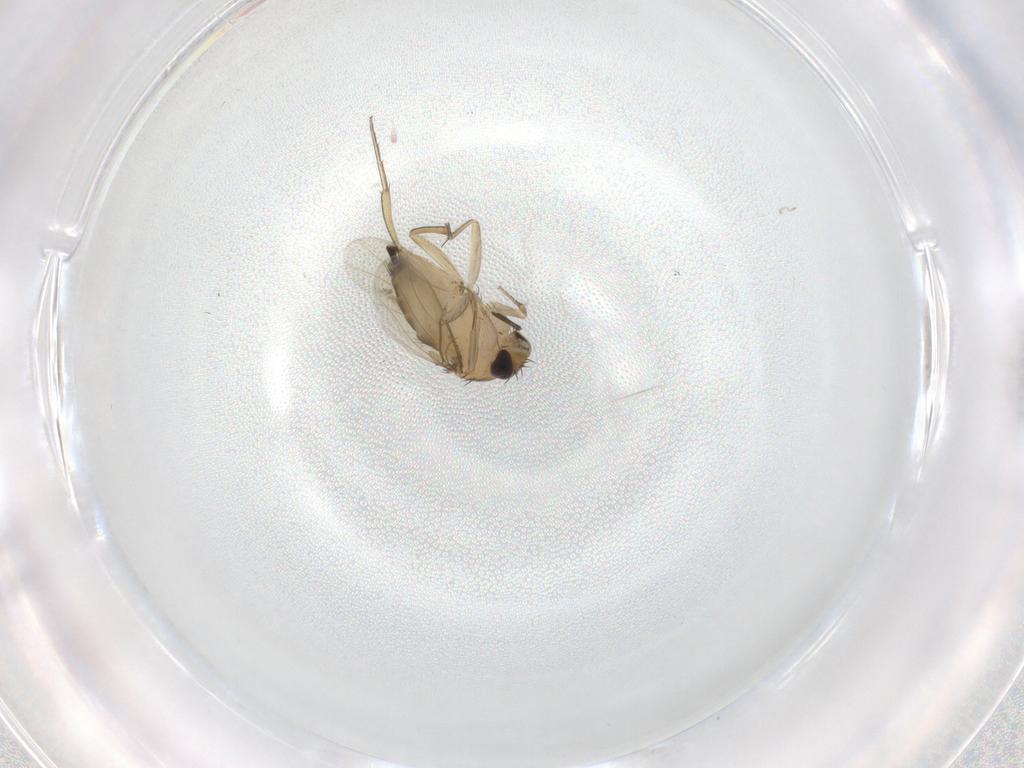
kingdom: Animalia
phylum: Arthropoda
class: Insecta
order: Diptera
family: Phoridae
